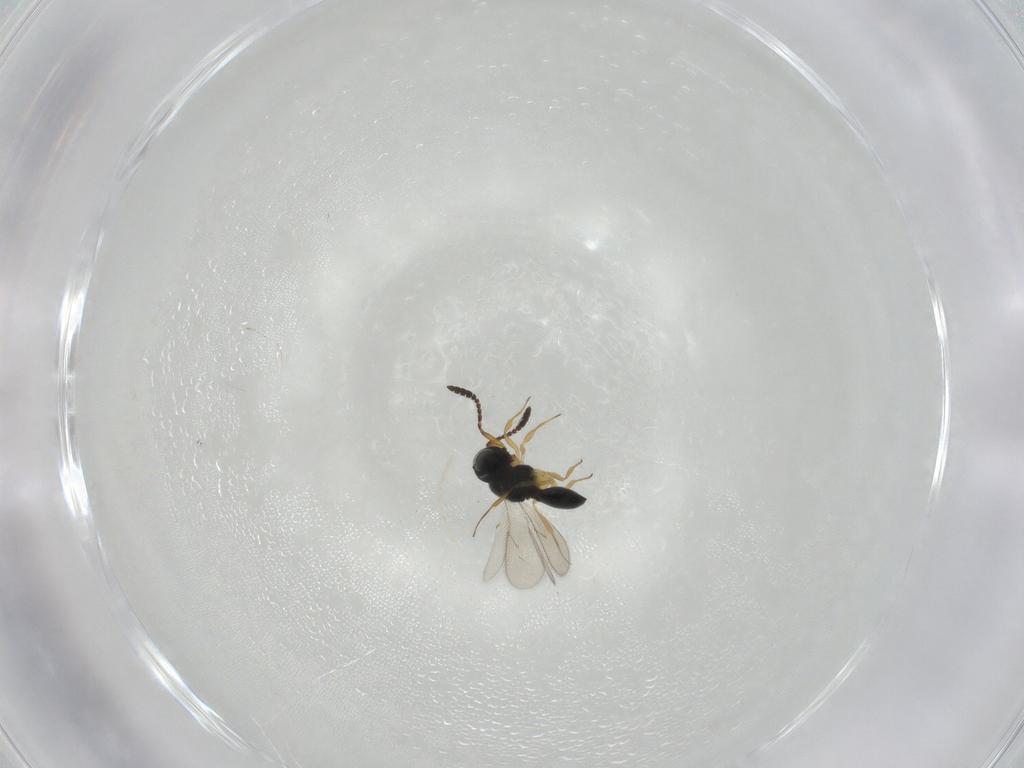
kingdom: Animalia
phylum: Arthropoda
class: Insecta
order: Hymenoptera
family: Scelionidae
